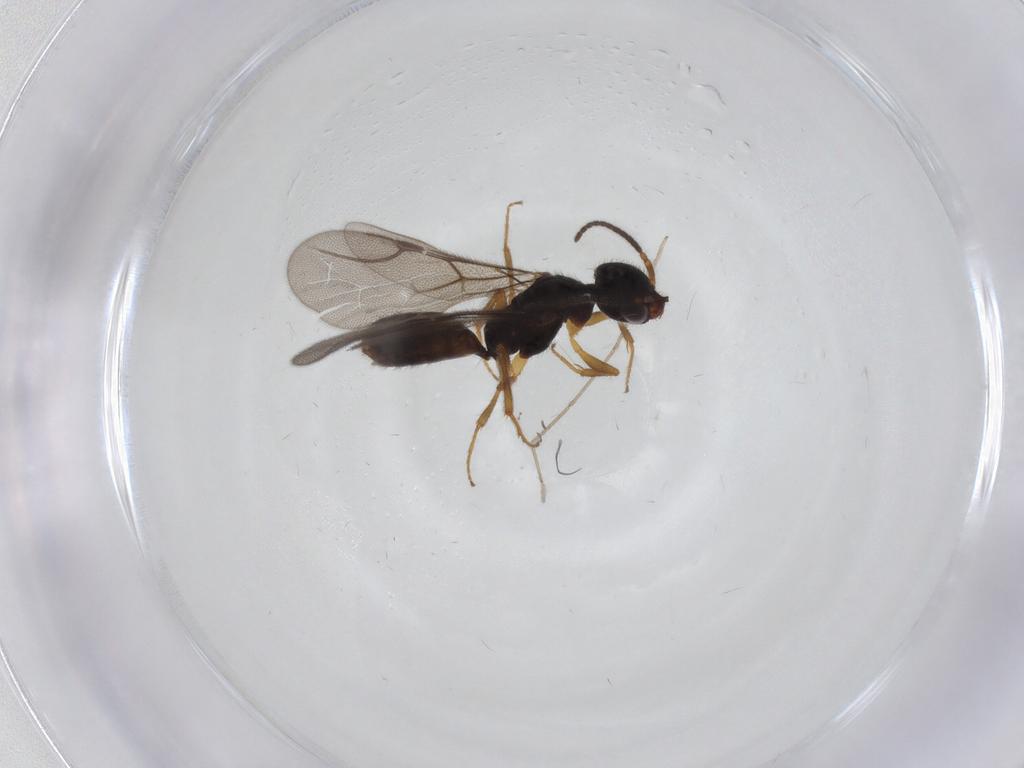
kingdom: Animalia
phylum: Arthropoda
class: Insecta
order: Hymenoptera
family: Bethylidae
